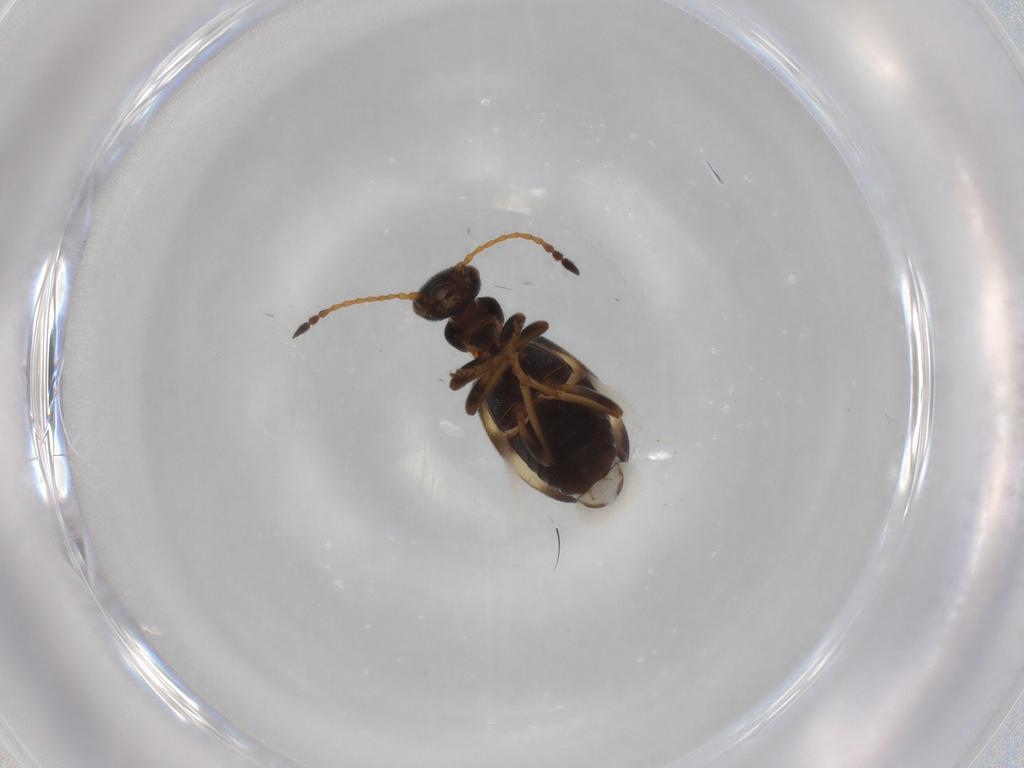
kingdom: Animalia
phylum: Arthropoda
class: Insecta
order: Coleoptera
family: Anthicidae
